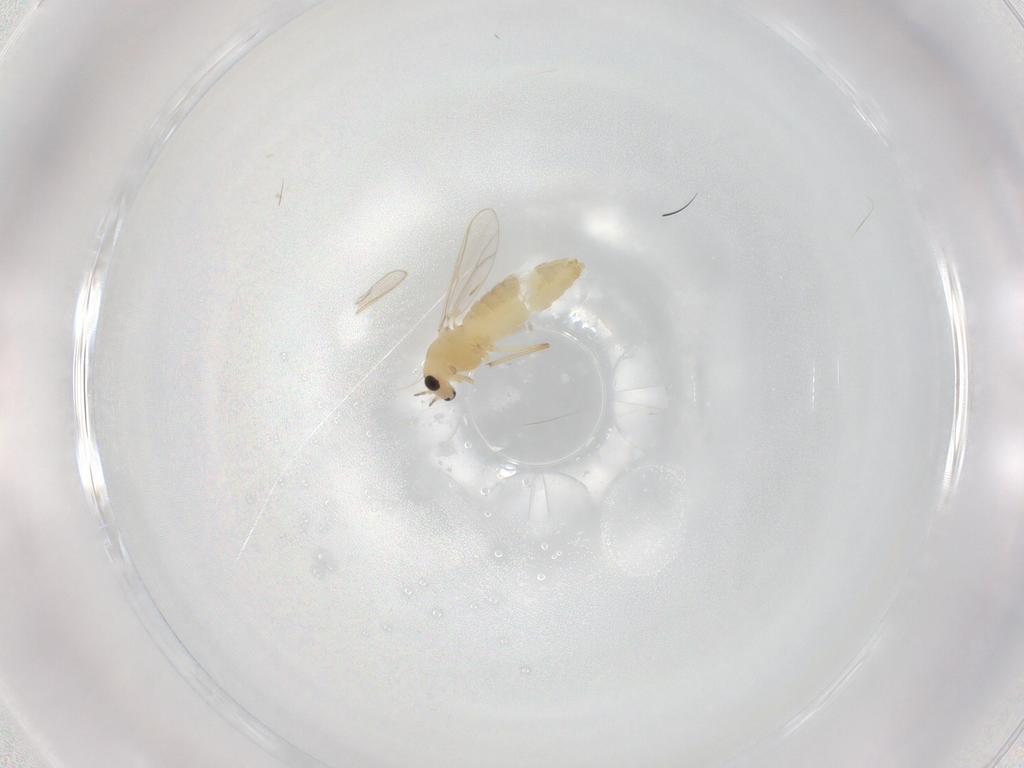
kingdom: Animalia
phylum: Arthropoda
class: Insecta
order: Diptera
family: Chironomidae
